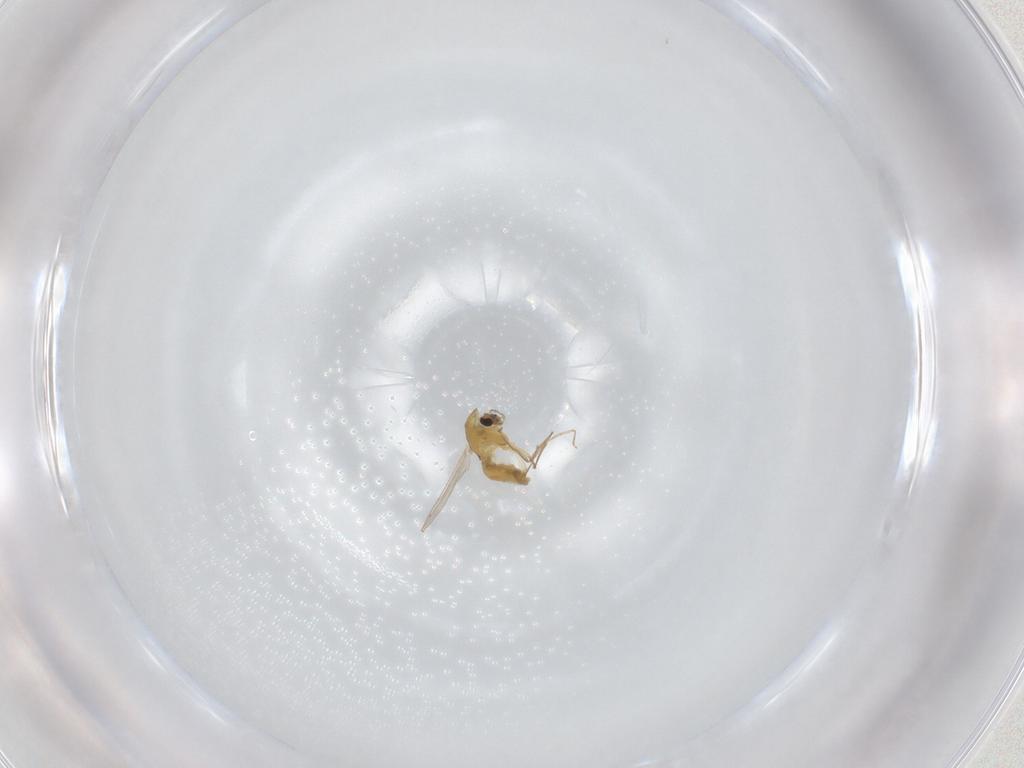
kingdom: Animalia
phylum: Arthropoda
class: Insecta
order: Diptera
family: Chironomidae
